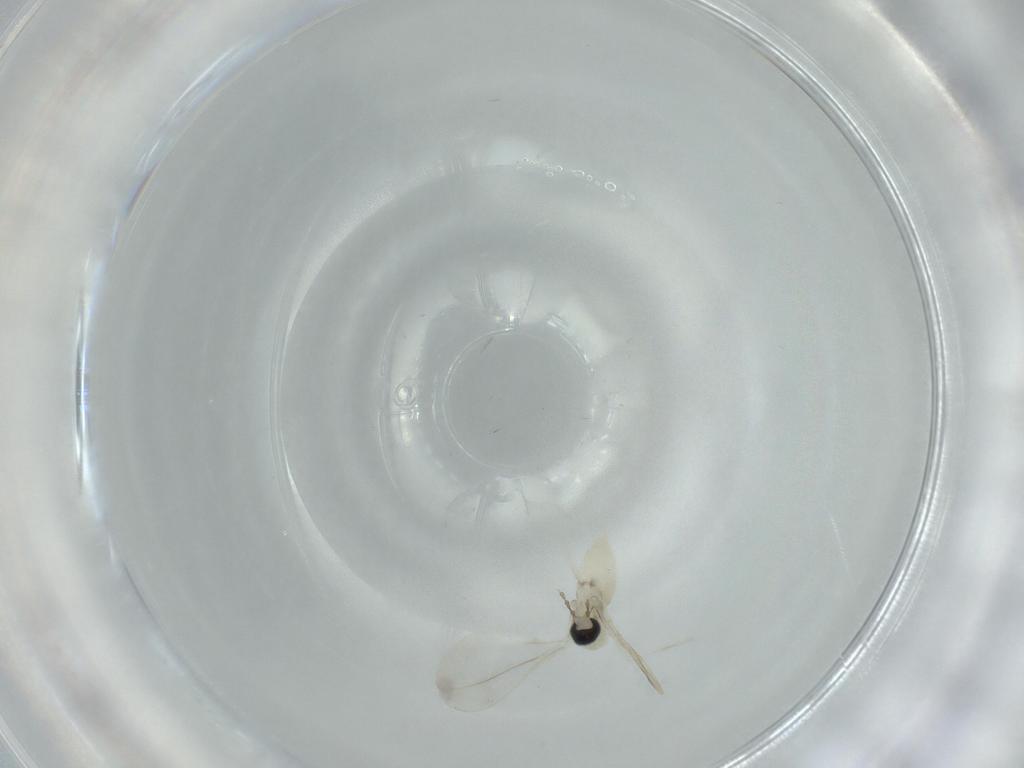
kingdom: Animalia
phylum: Arthropoda
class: Insecta
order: Diptera
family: Cecidomyiidae
